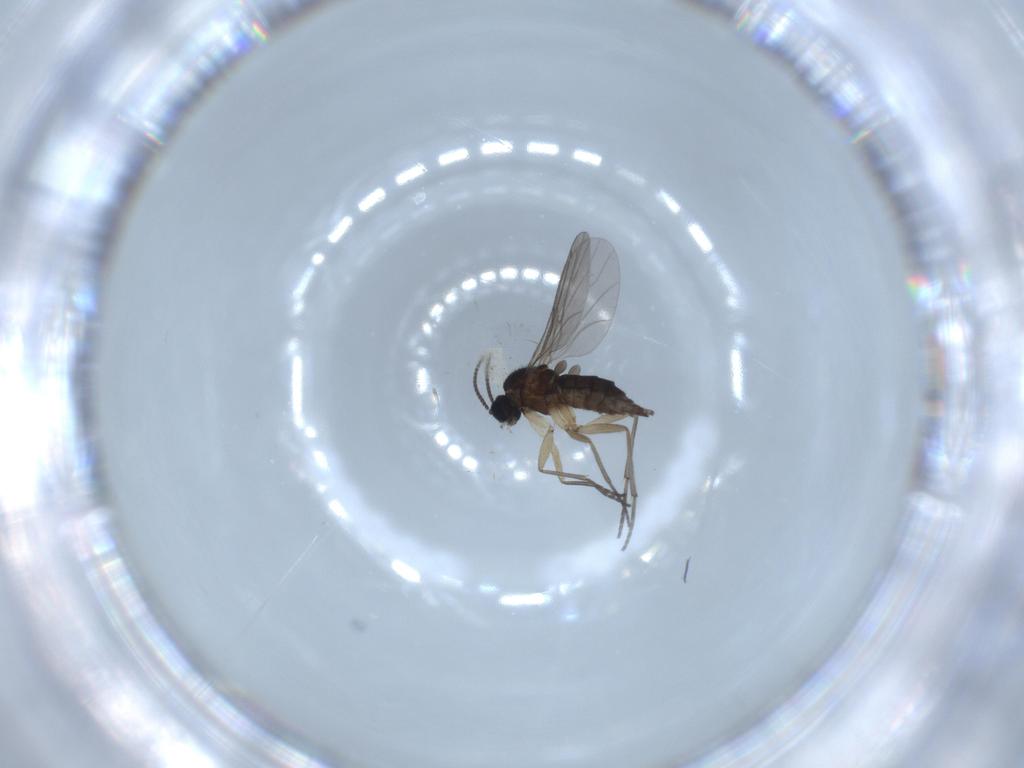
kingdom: Animalia
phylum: Arthropoda
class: Insecta
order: Diptera
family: Sciaridae
